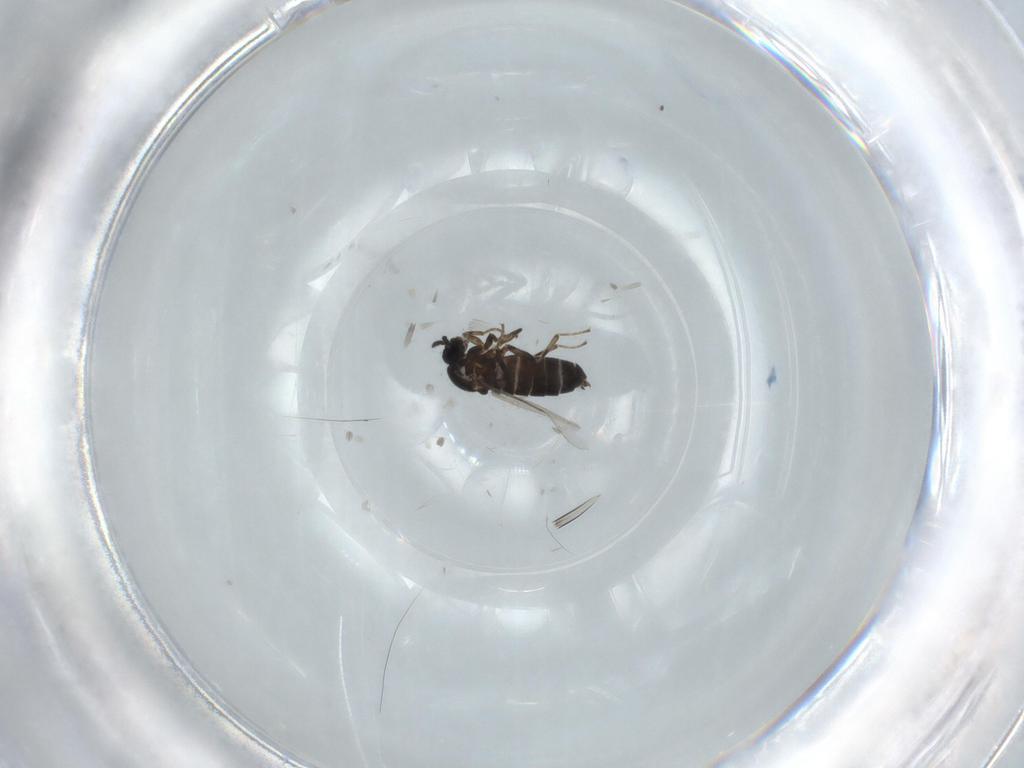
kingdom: Animalia
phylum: Arthropoda
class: Insecta
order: Diptera
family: Scatopsidae
